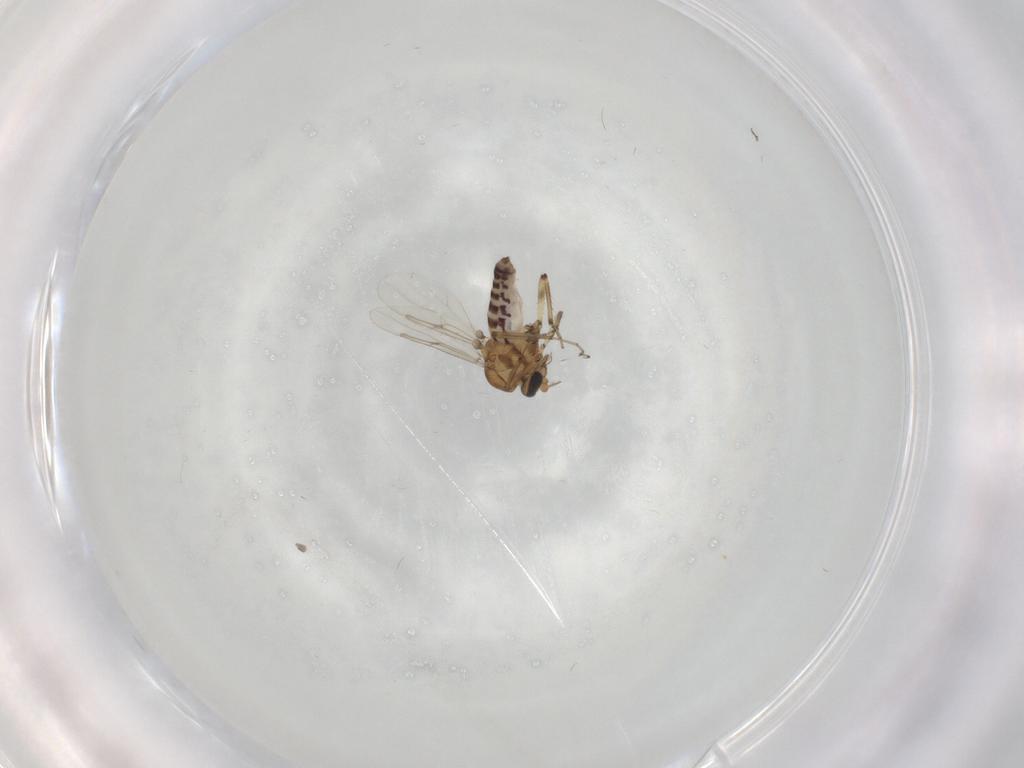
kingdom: Animalia
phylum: Arthropoda
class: Insecta
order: Diptera
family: Ceratopogonidae
